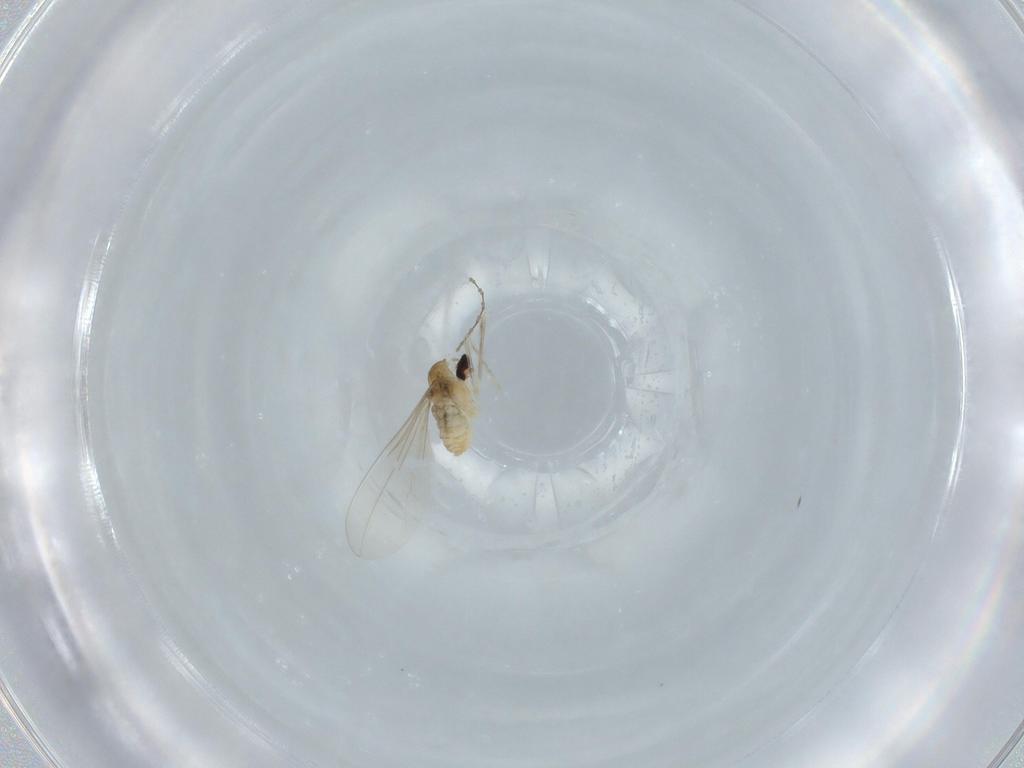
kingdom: Animalia
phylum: Arthropoda
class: Insecta
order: Diptera
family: Cecidomyiidae
